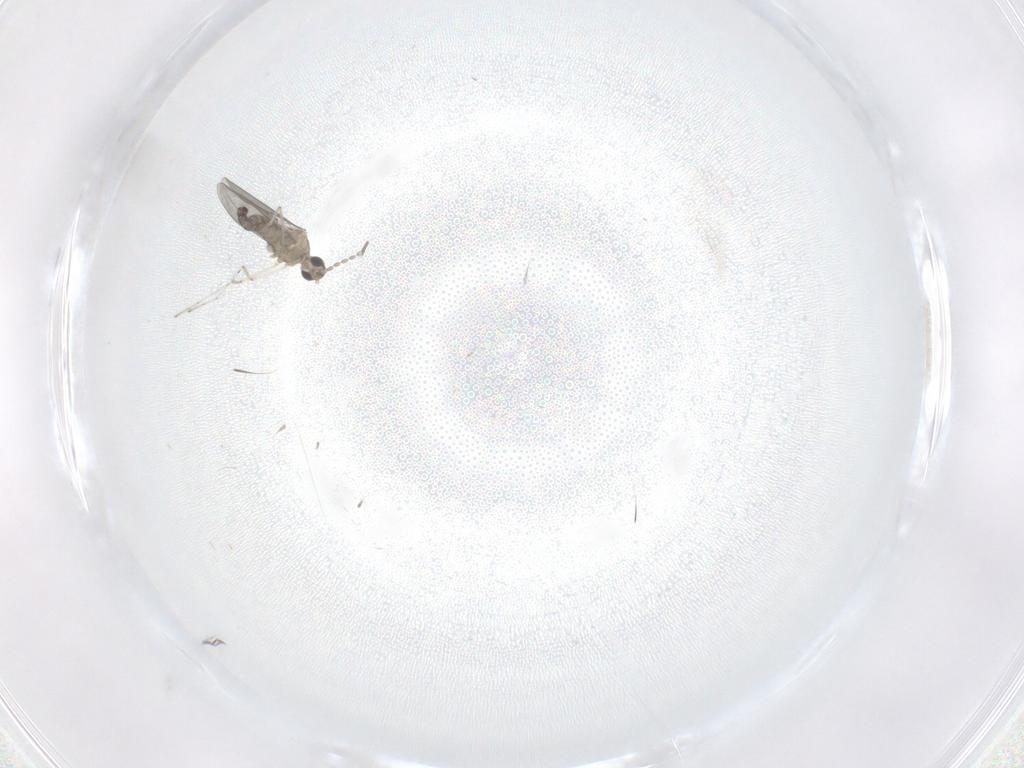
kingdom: Animalia
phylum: Arthropoda
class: Insecta
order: Diptera
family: Cecidomyiidae
